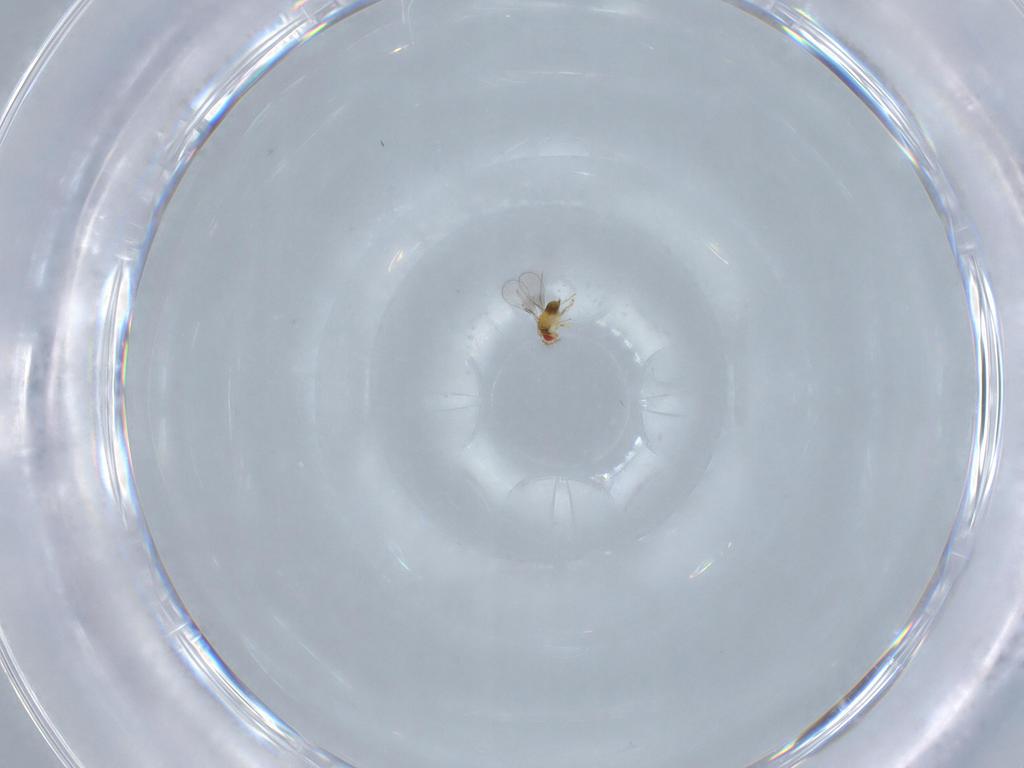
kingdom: Animalia
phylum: Arthropoda
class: Insecta
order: Hymenoptera
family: Trichogrammatidae
